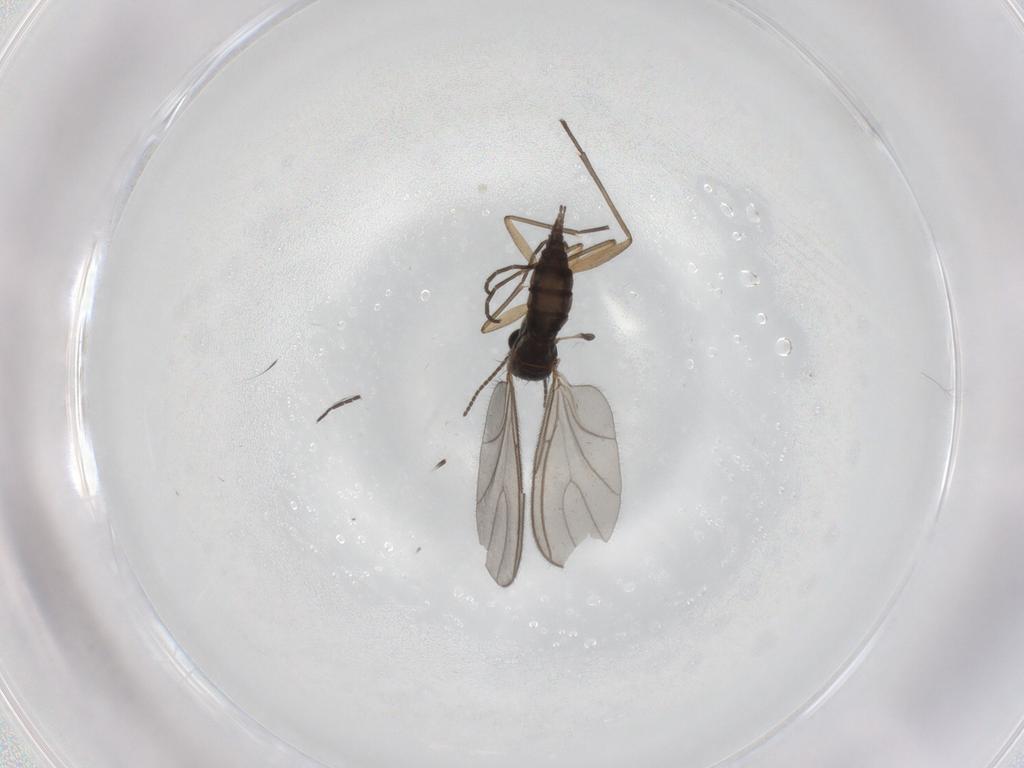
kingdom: Animalia
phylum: Arthropoda
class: Insecta
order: Diptera
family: Sciaridae
